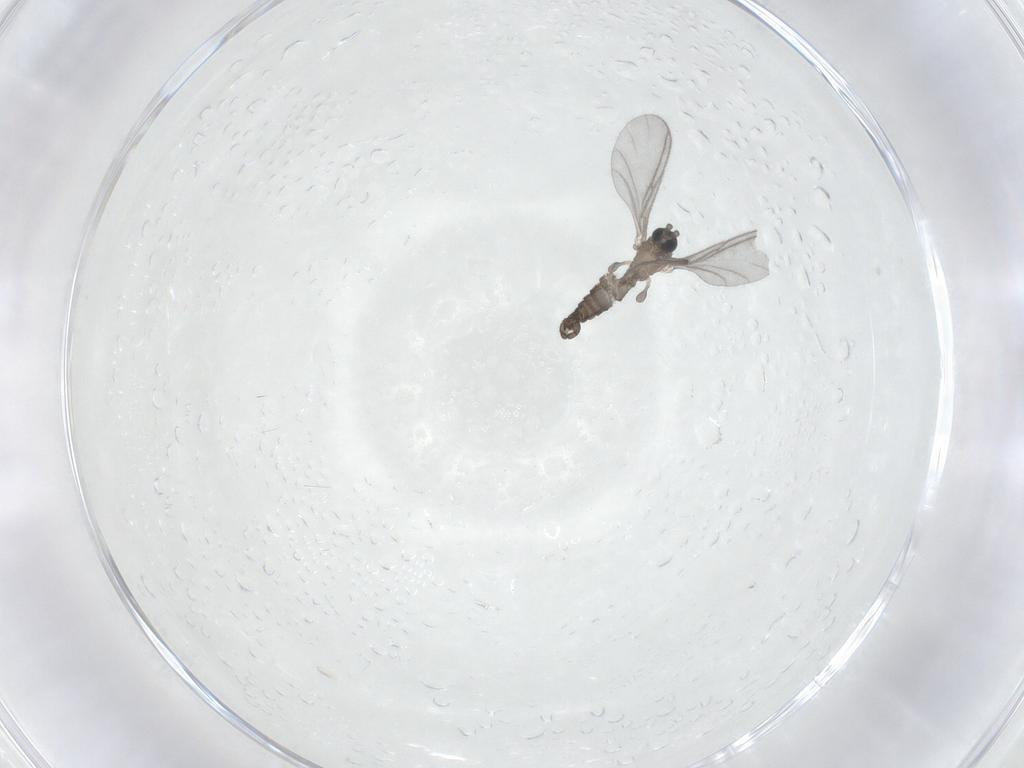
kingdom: Animalia
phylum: Arthropoda
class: Insecta
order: Diptera
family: Sciaridae
